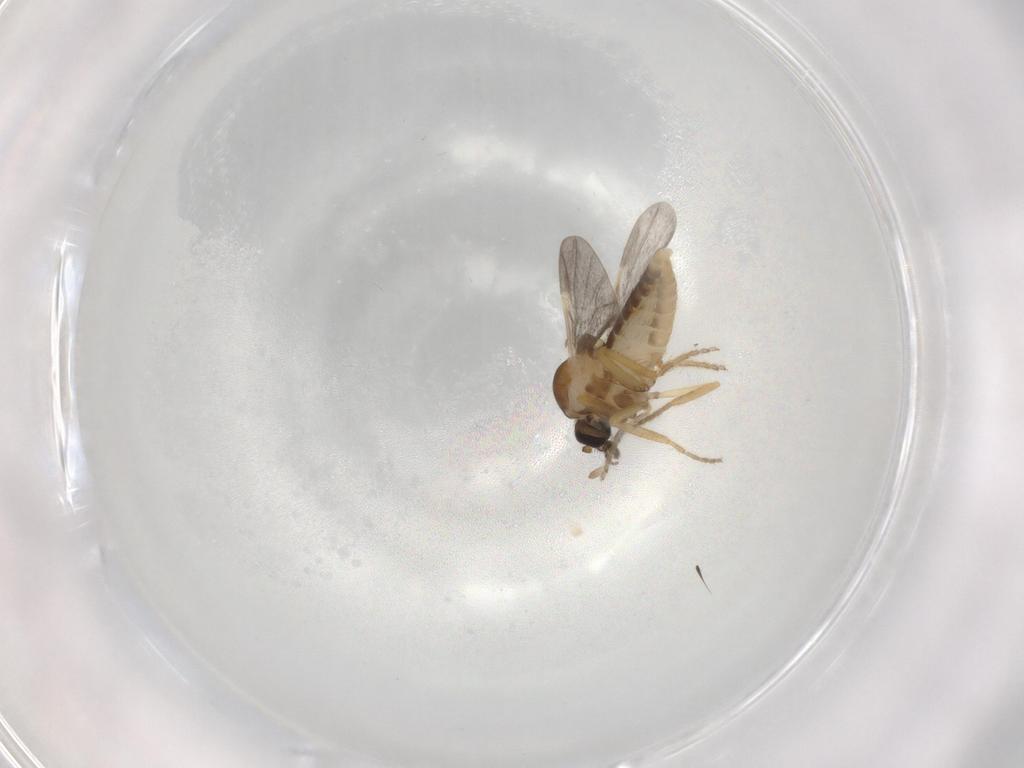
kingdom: Animalia
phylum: Arthropoda
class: Insecta
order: Diptera
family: Ceratopogonidae
